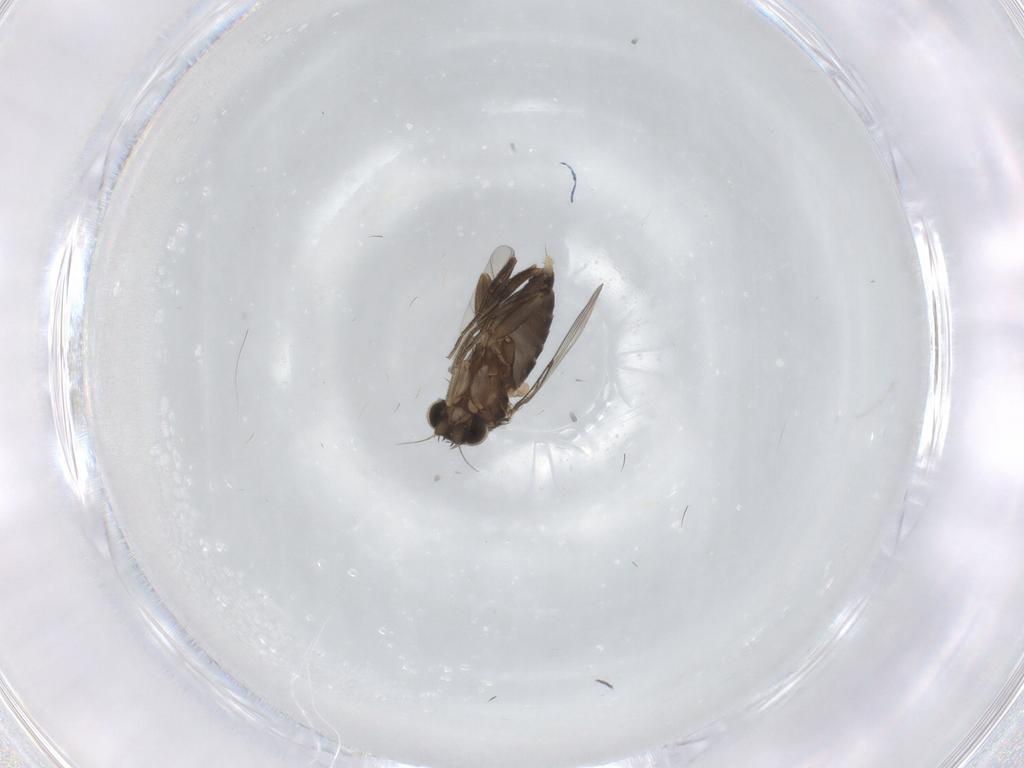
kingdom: Animalia
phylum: Arthropoda
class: Insecta
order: Diptera
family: Phoridae
